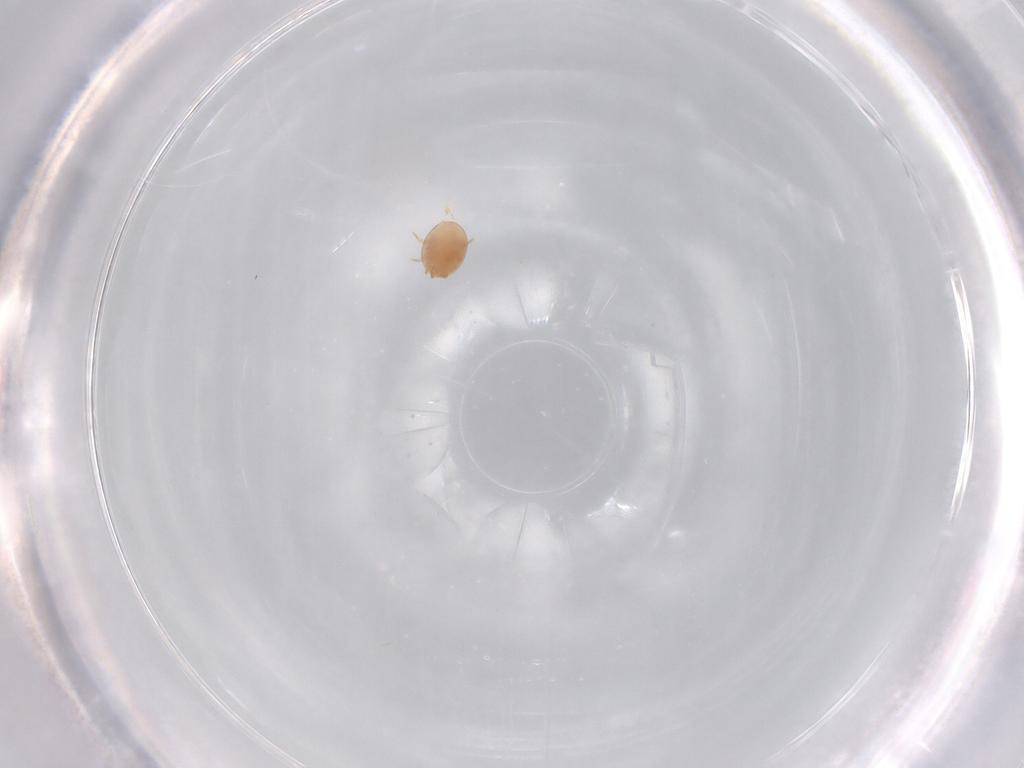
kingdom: Animalia
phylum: Arthropoda
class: Arachnida
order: Mesostigmata
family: Trematuridae
